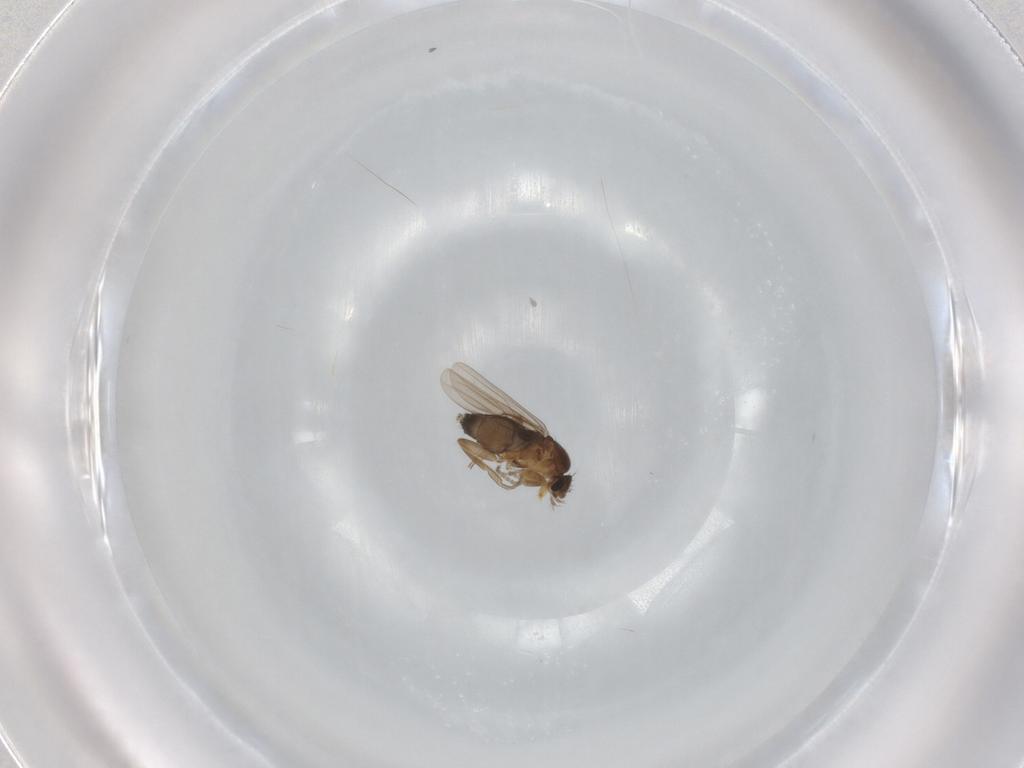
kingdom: Animalia
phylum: Arthropoda
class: Insecta
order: Diptera
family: Phoridae
